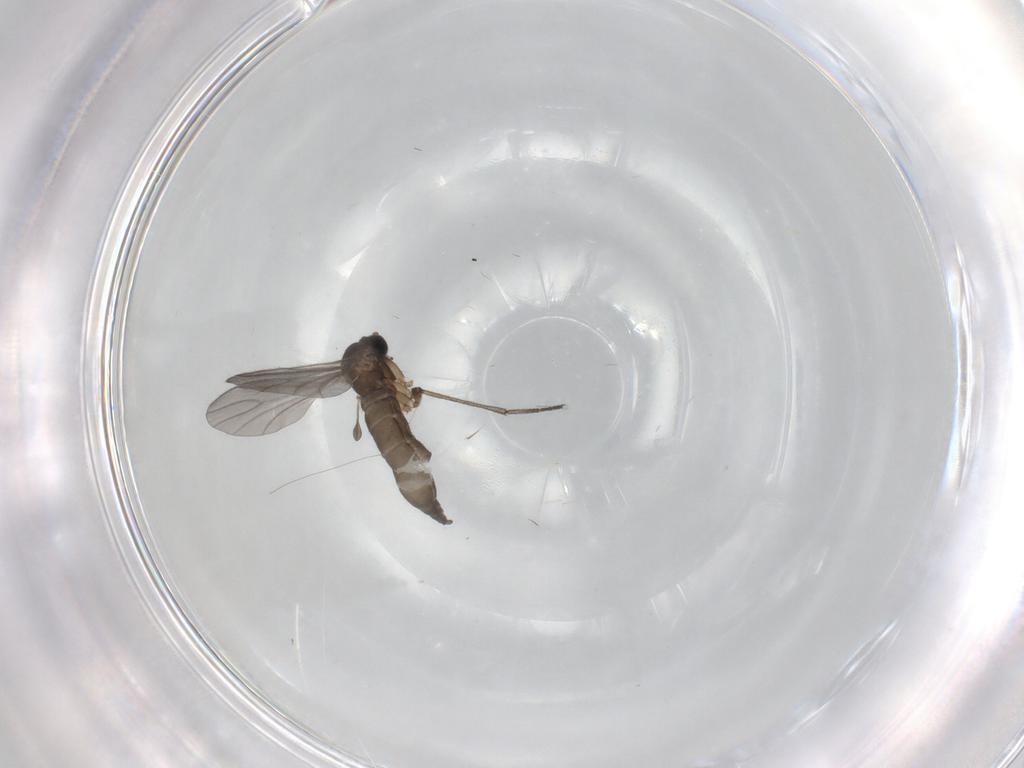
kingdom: Animalia
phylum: Arthropoda
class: Insecta
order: Diptera
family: Sciaridae
